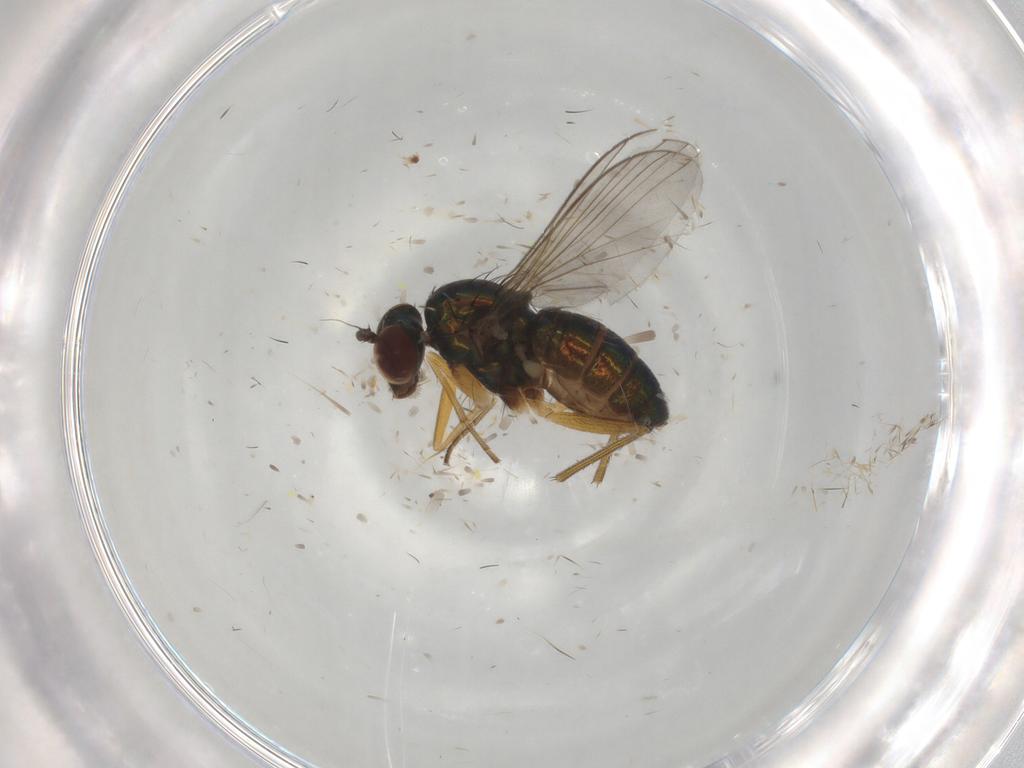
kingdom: Animalia
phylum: Arthropoda
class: Insecta
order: Diptera
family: Dolichopodidae
